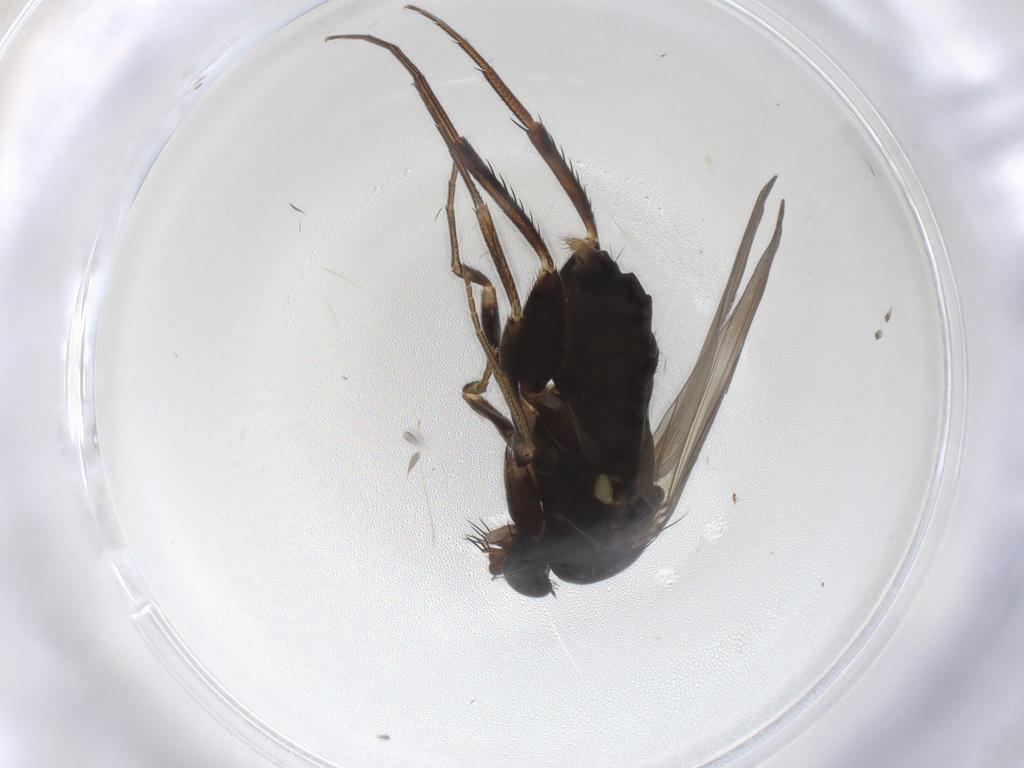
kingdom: Animalia
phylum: Arthropoda
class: Insecta
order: Diptera
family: Phoridae
